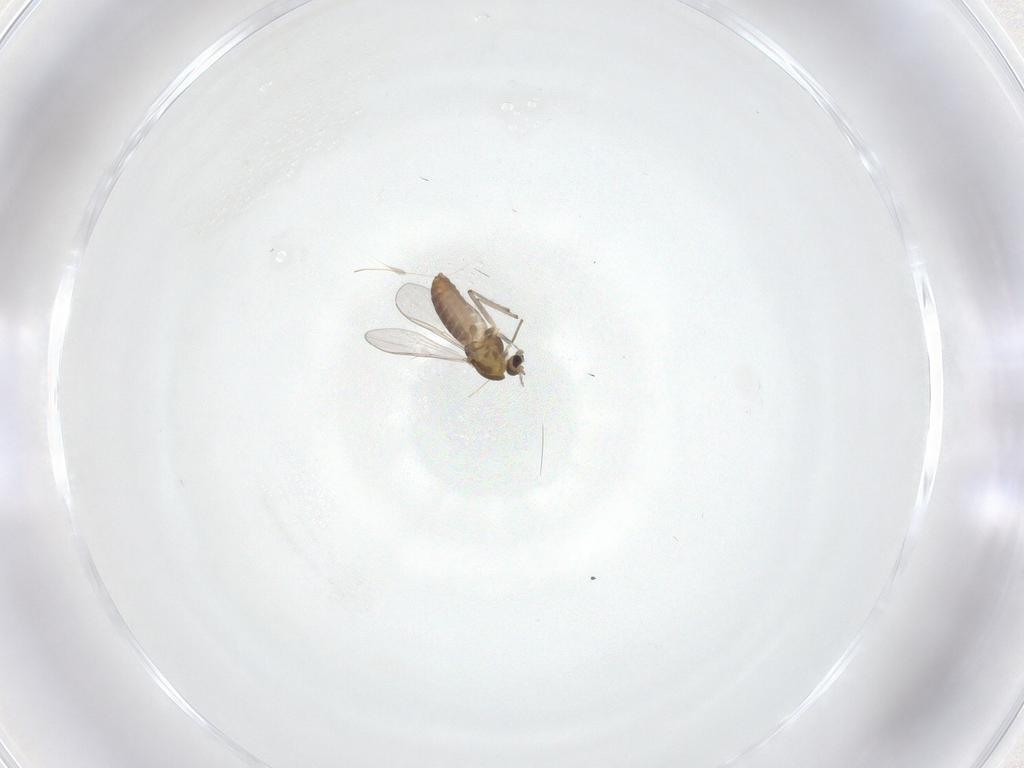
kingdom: Animalia
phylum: Arthropoda
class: Insecta
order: Diptera
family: Chironomidae
